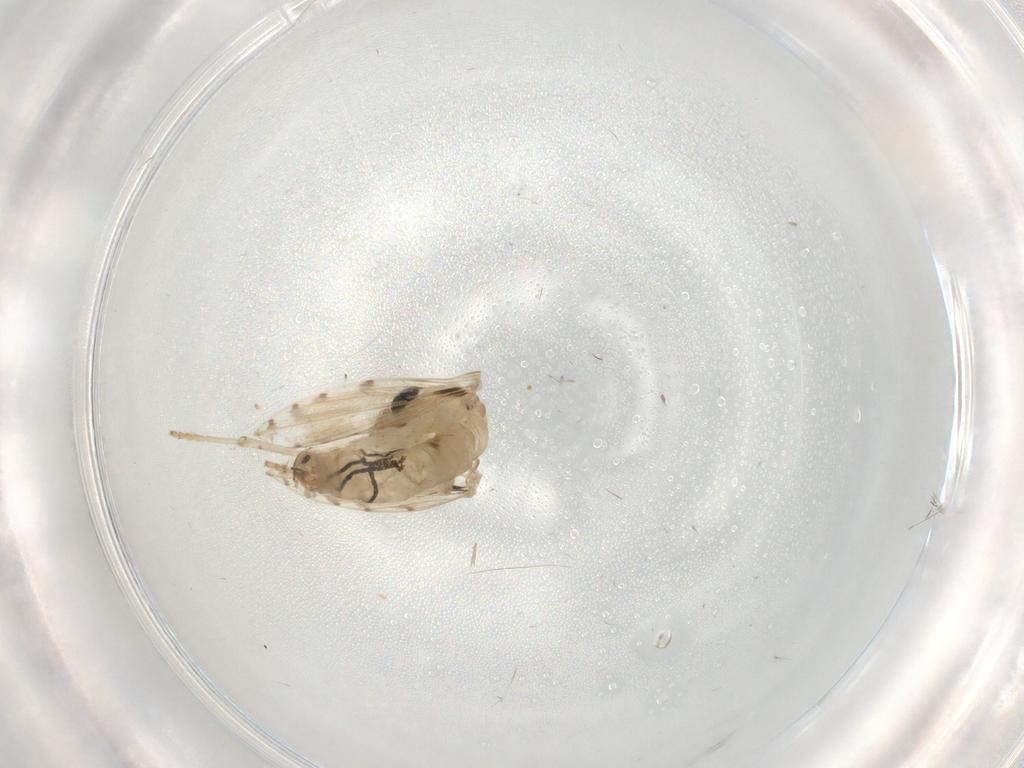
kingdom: Animalia
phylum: Arthropoda
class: Insecta
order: Diptera
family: Psychodidae
